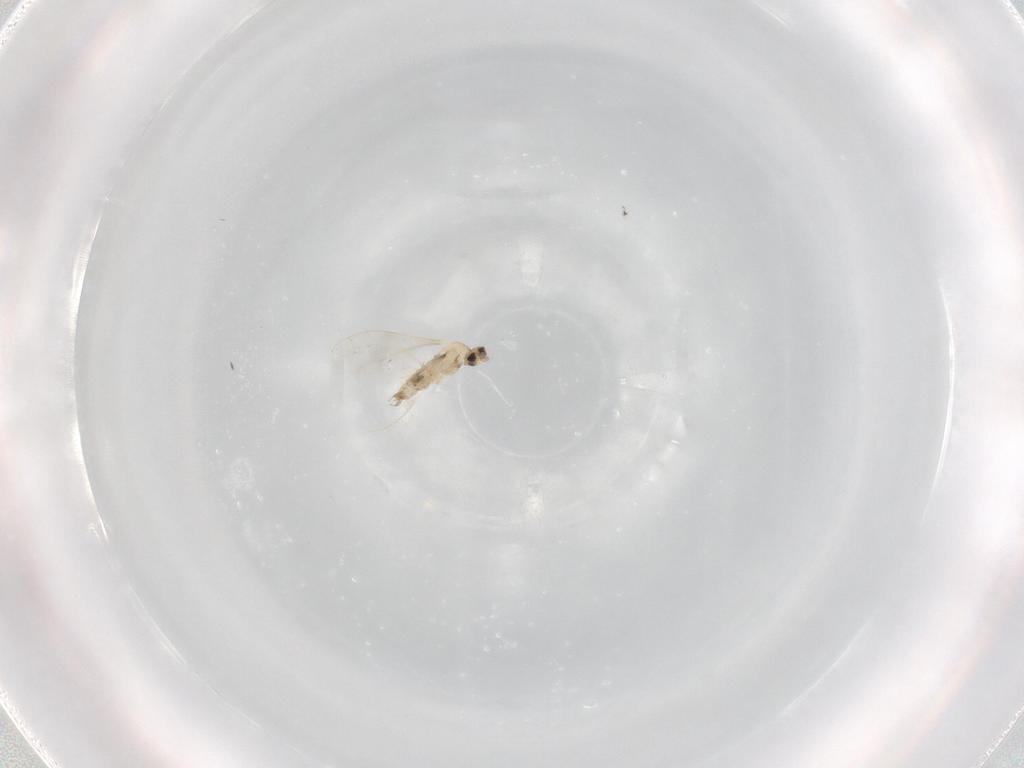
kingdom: Animalia
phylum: Arthropoda
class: Insecta
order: Diptera
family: Cecidomyiidae
